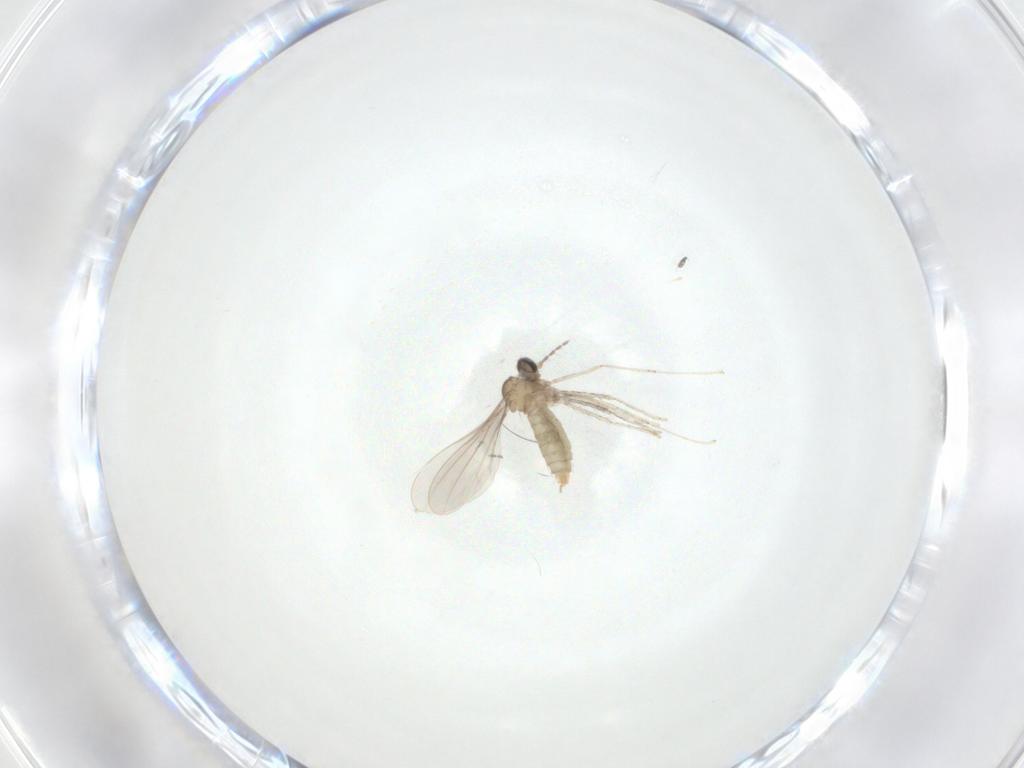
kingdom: Animalia
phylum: Arthropoda
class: Insecta
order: Diptera
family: Cecidomyiidae
